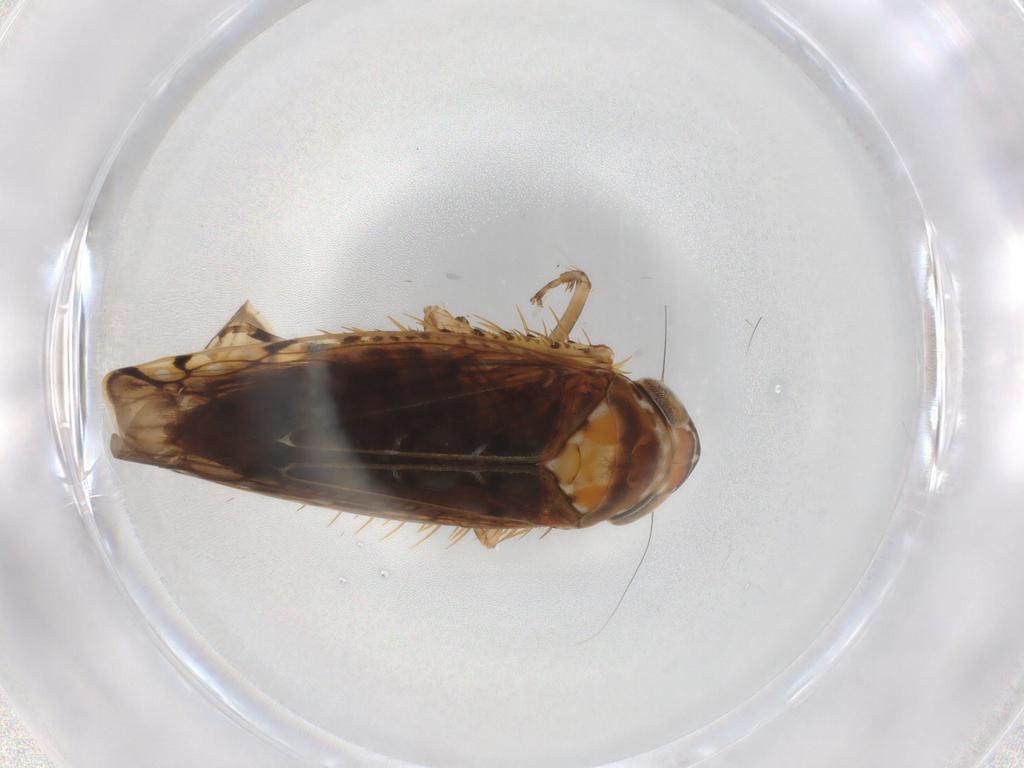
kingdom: Animalia
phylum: Arthropoda
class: Insecta
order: Hemiptera
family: Cicadellidae
